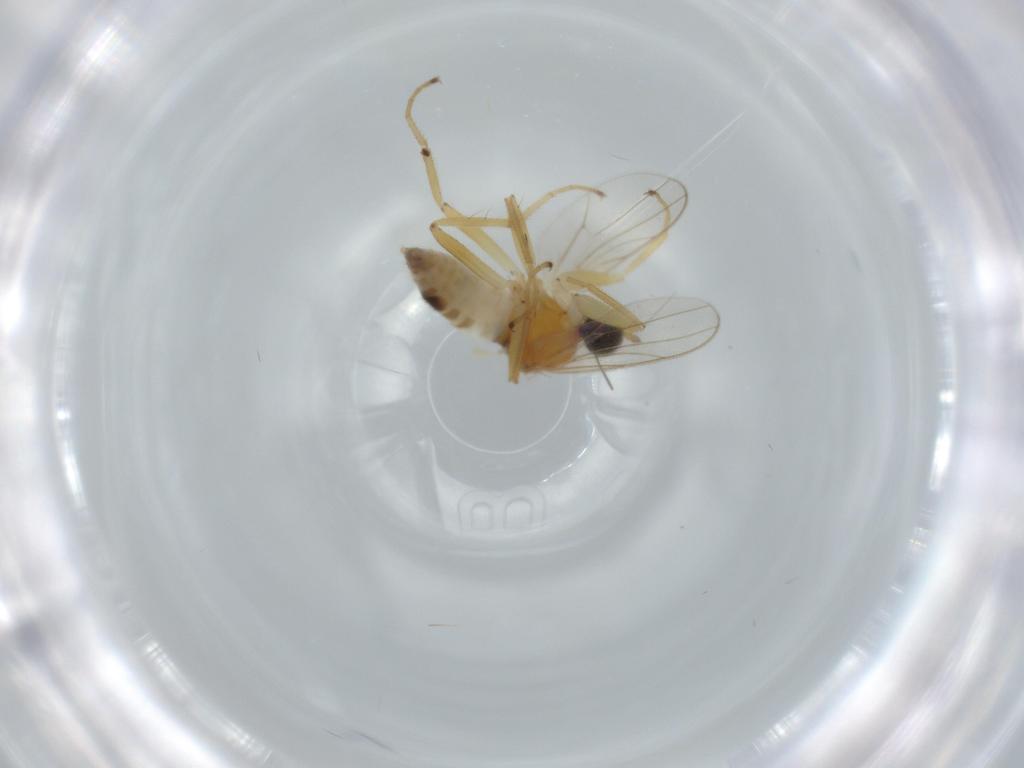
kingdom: Animalia
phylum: Arthropoda
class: Insecta
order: Diptera
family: Hybotidae
